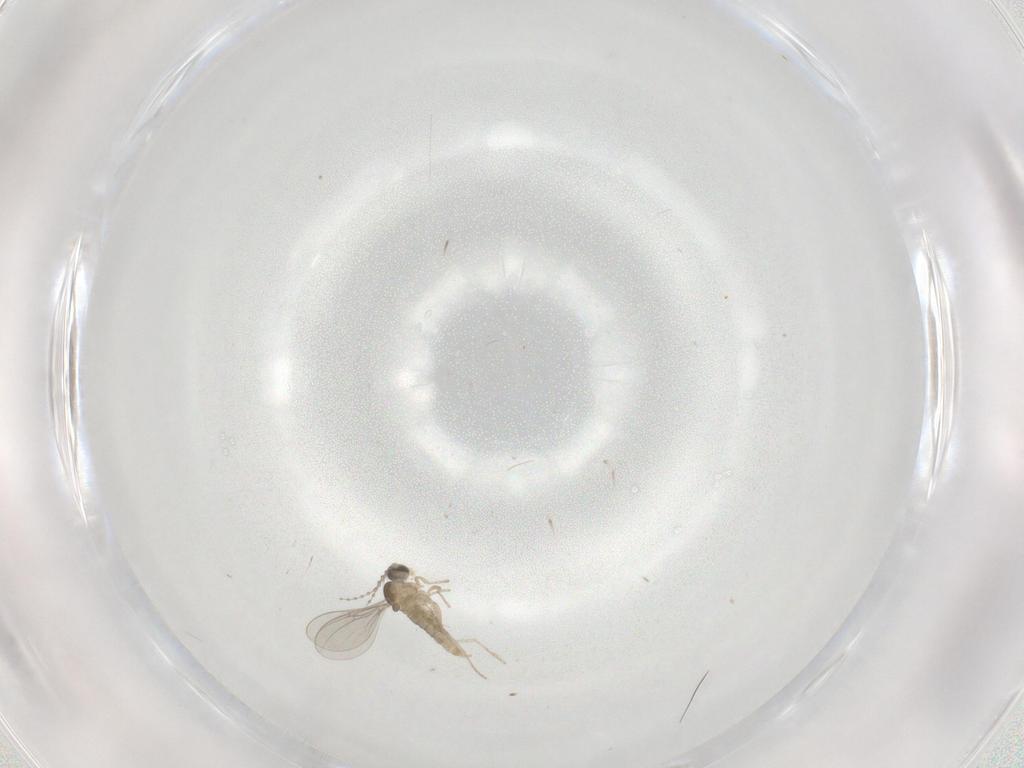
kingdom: Animalia
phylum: Arthropoda
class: Insecta
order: Diptera
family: Cecidomyiidae
